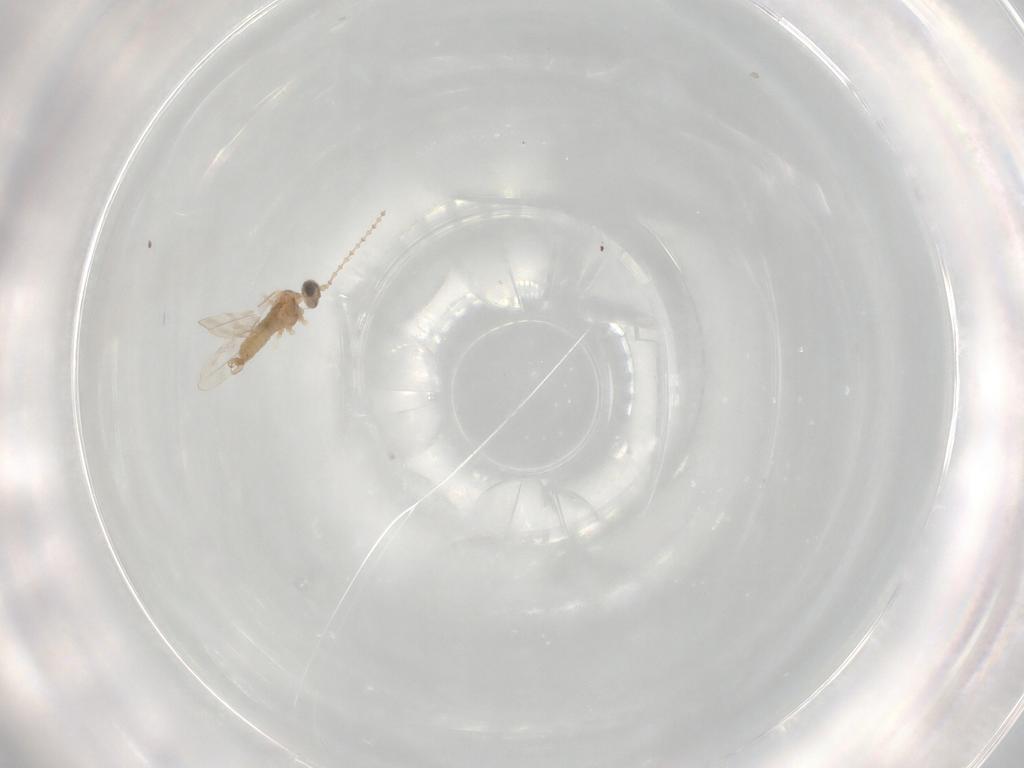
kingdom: Animalia
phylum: Arthropoda
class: Insecta
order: Diptera
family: Cecidomyiidae
